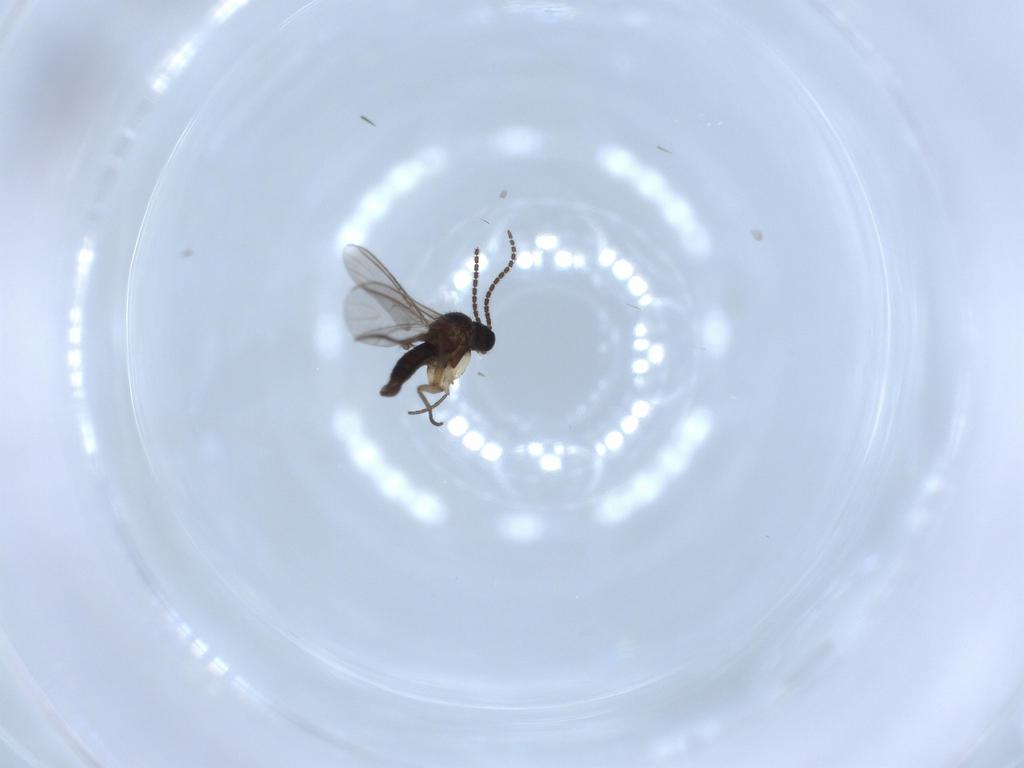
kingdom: Animalia
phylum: Arthropoda
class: Insecta
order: Diptera
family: Sciaridae
